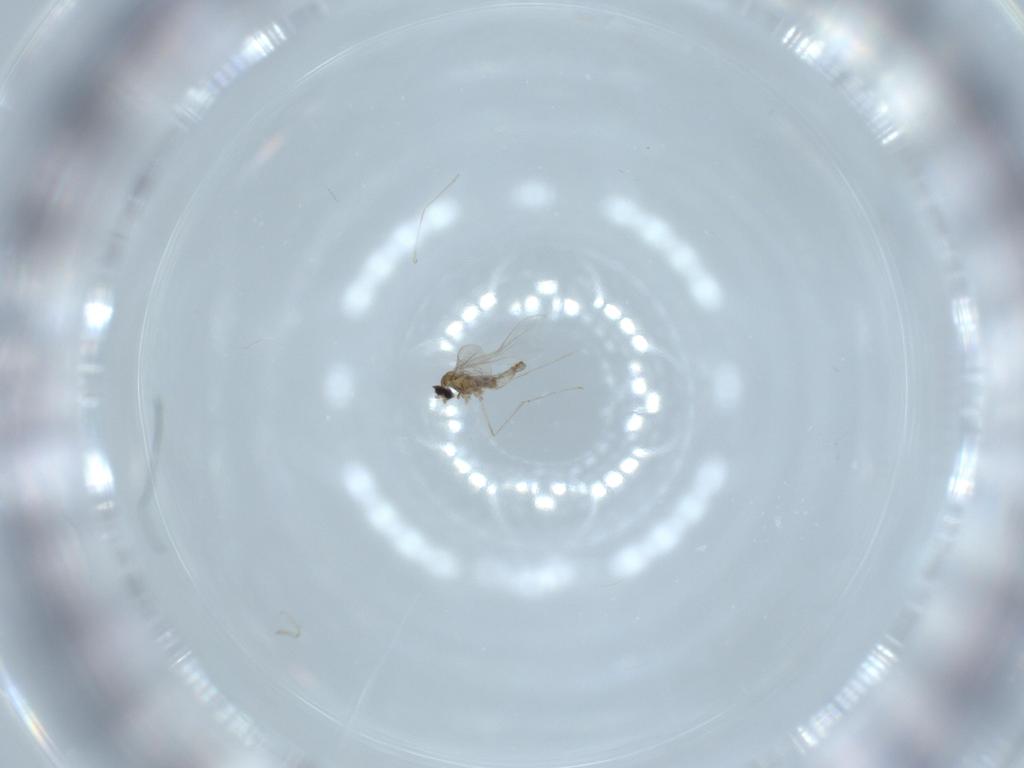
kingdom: Animalia
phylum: Arthropoda
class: Insecta
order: Diptera
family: Cecidomyiidae
